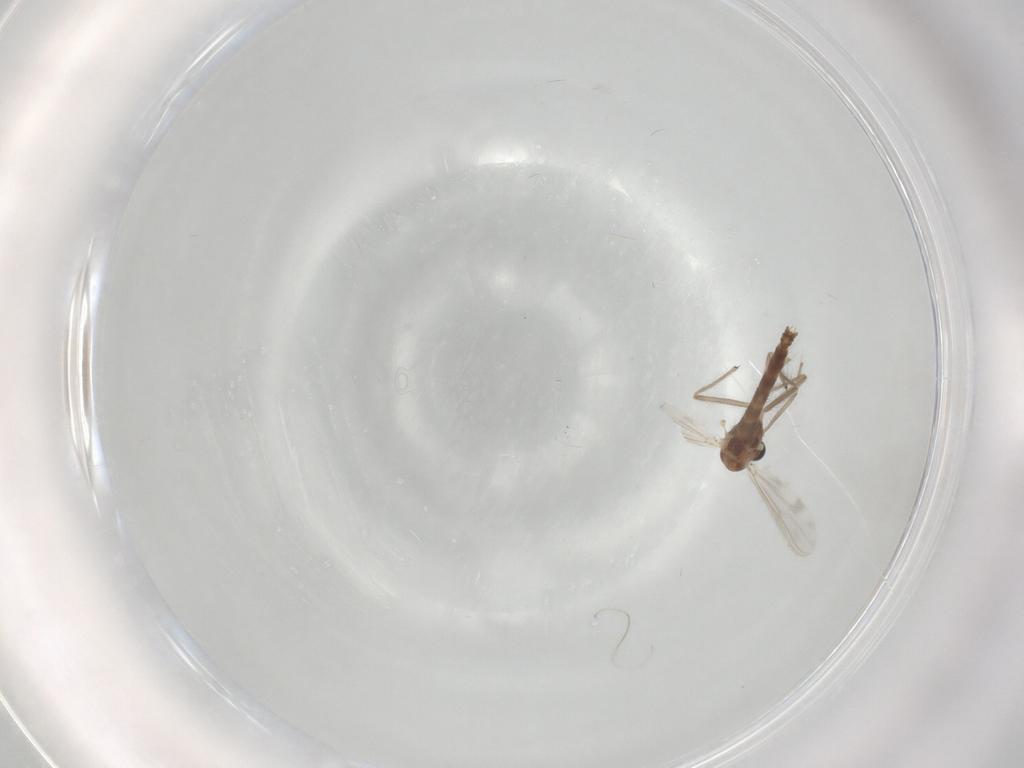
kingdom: Animalia
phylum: Arthropoda
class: Insecta
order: Diptera
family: Chironomidae
